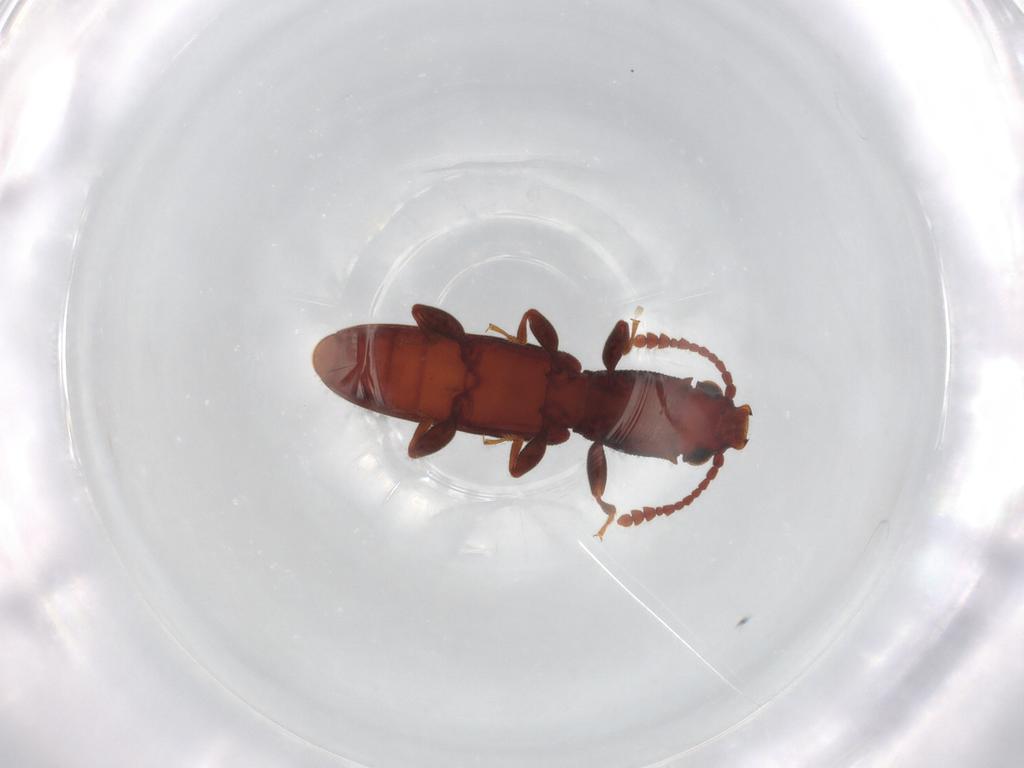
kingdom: Animalia
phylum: Arthropoda
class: Insecta
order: Coleoptera
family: Silvanidae
